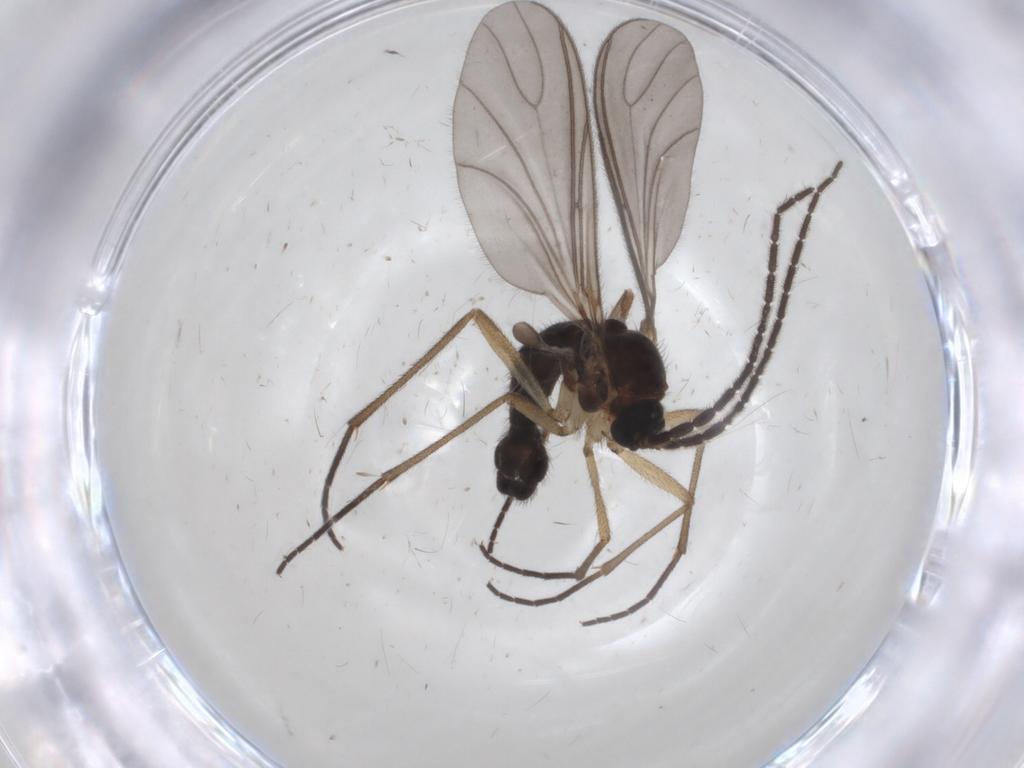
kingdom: Animalia
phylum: Arthropoda
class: Insecta
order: Diptera
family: Sciaridae
